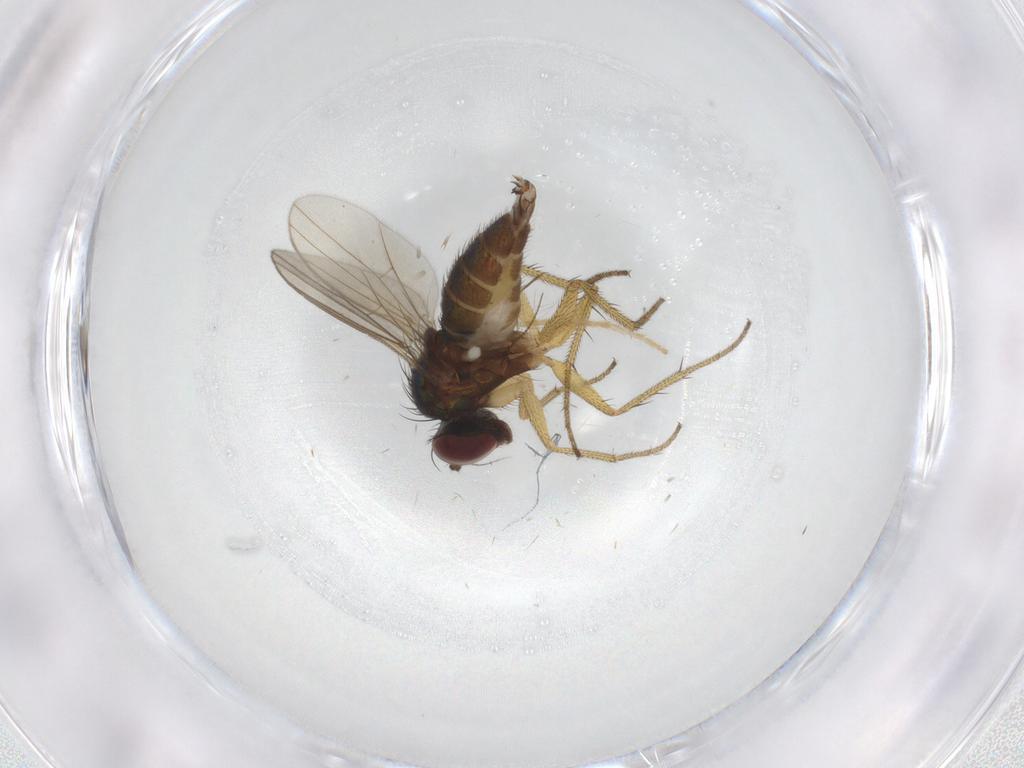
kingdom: Animalia
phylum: Arthropoda
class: Insecta
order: Diptera
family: Dolichopodidae
